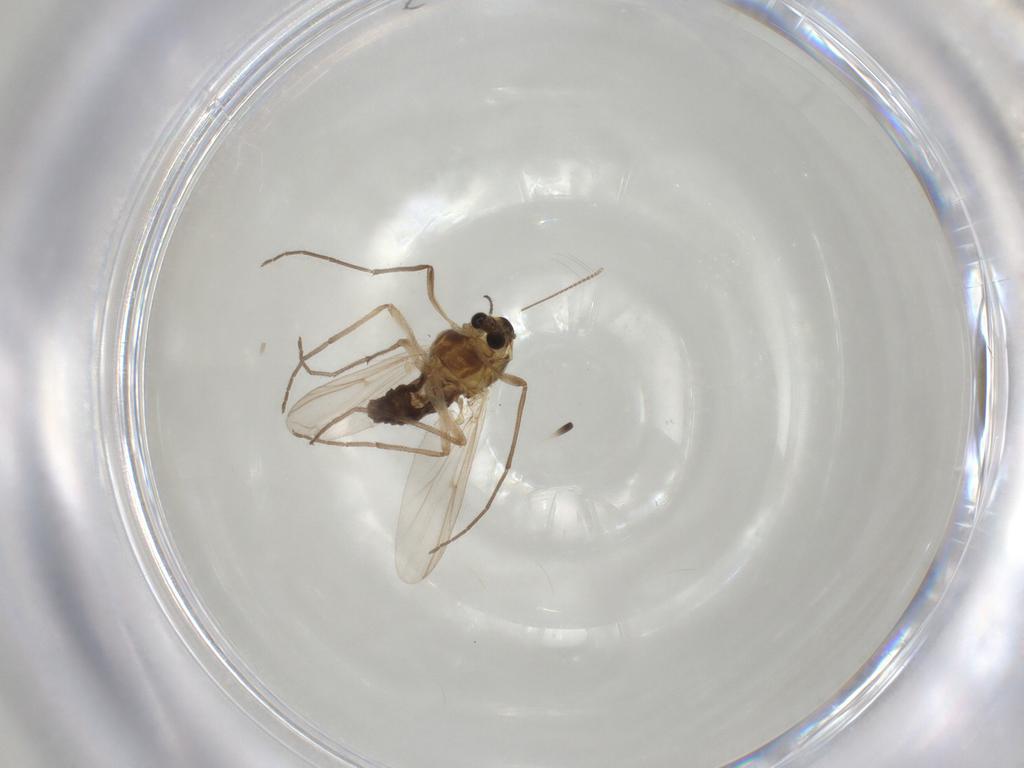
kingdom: Animalia
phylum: Arthropoda
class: Insecta
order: Diptera
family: Chironomidae
